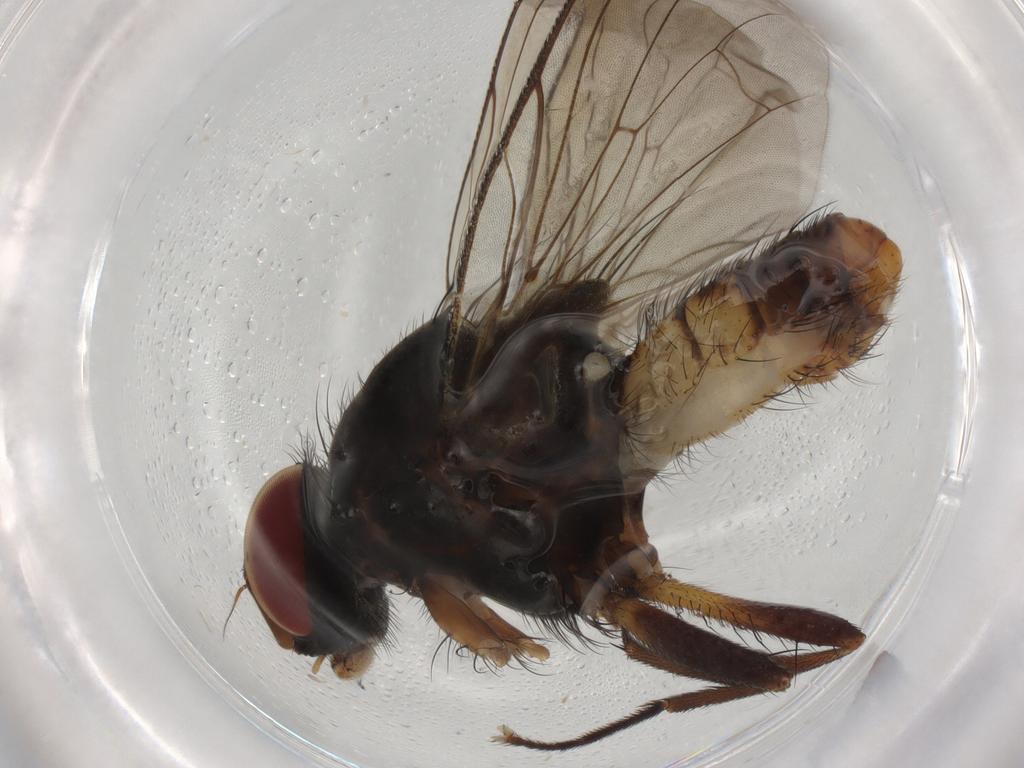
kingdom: Animalia
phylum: Arthropoda
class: Insecta
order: Diptera
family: Anthomyiidae
